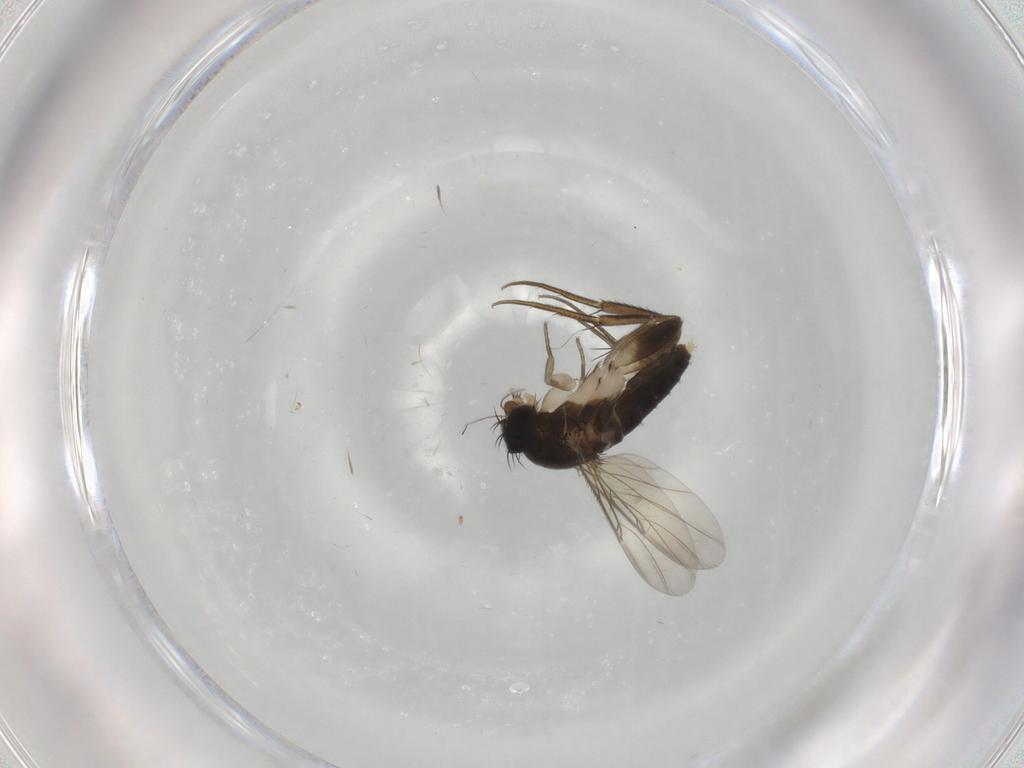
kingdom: Animalia
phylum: Arthropoda
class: Insecta
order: Diptera
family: Phoridae
